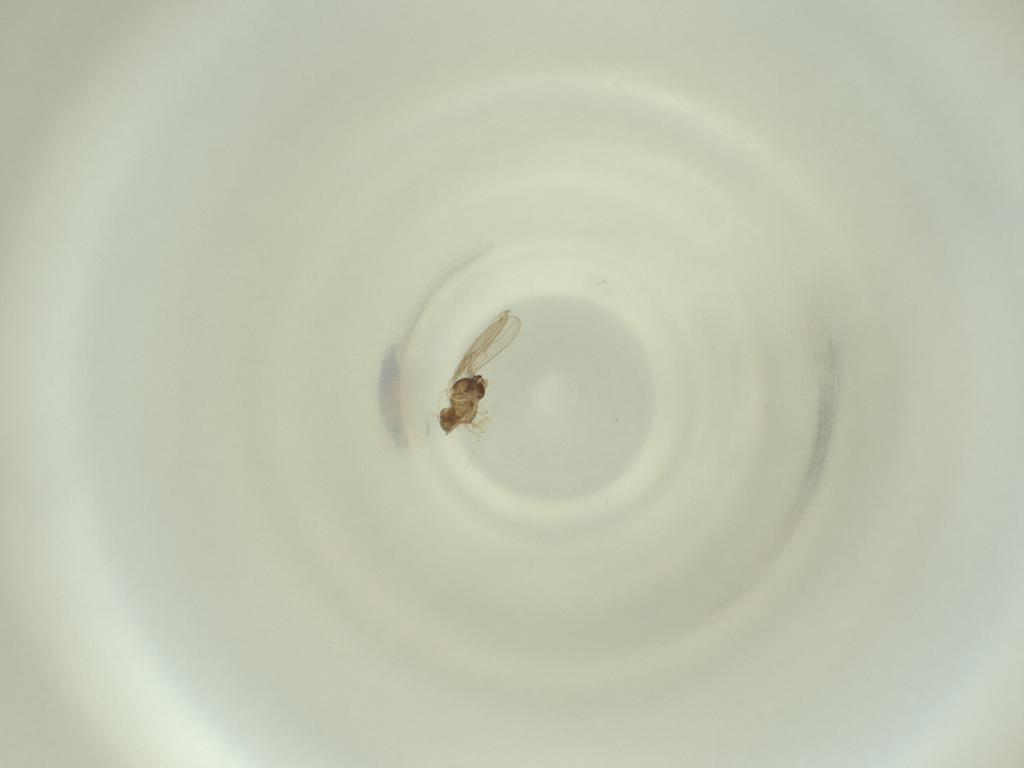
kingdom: Animalia
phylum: Arthropoda
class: Insecta
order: Diptera
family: Cecidomyiidae
